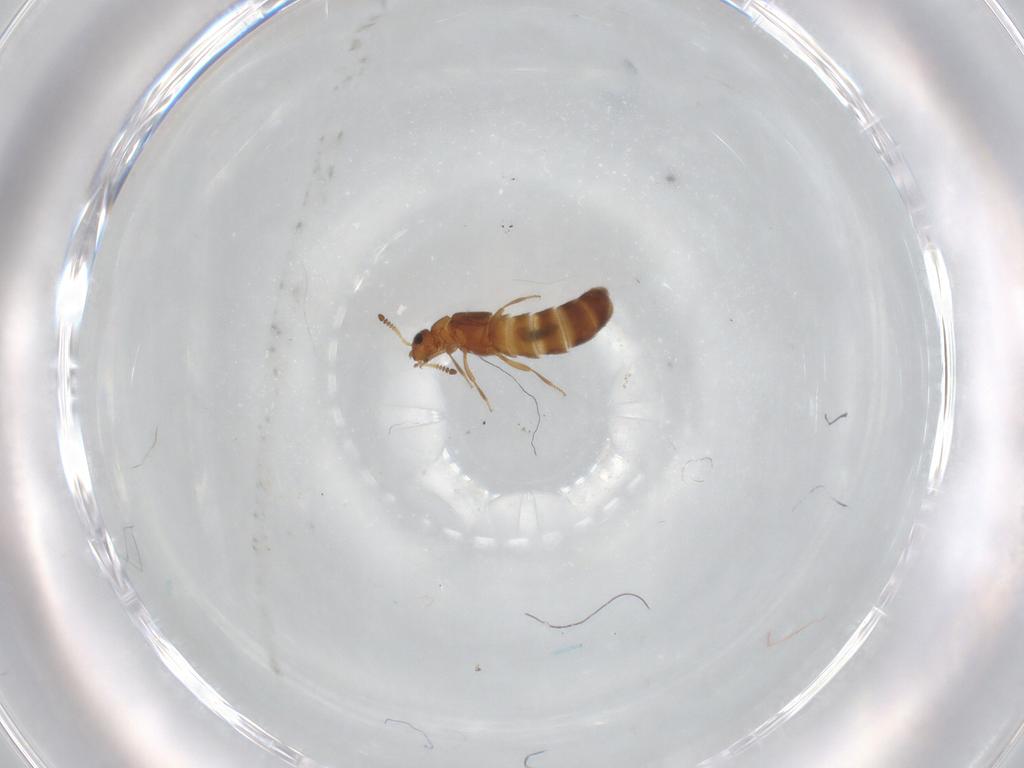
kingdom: Animalia
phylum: Arthropoda
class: Insecta
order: Coleoptera
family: Staphylinidae
